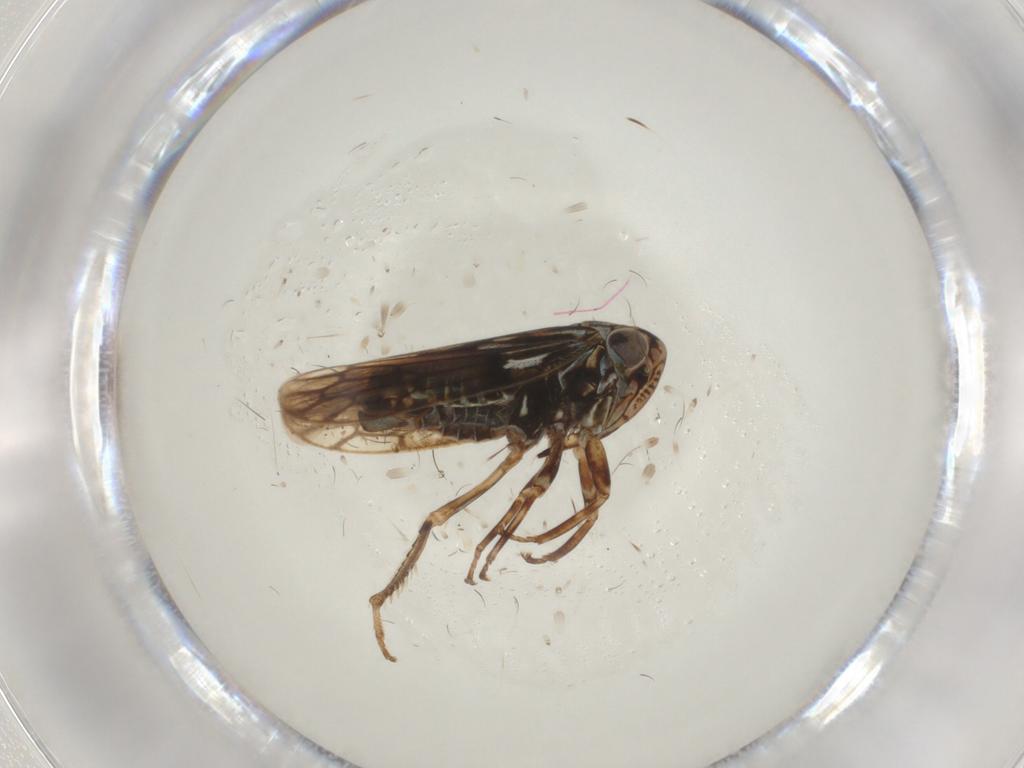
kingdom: Animalia
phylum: Arthropoda
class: Insecta
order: Hemiptera
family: Cicadellidae
